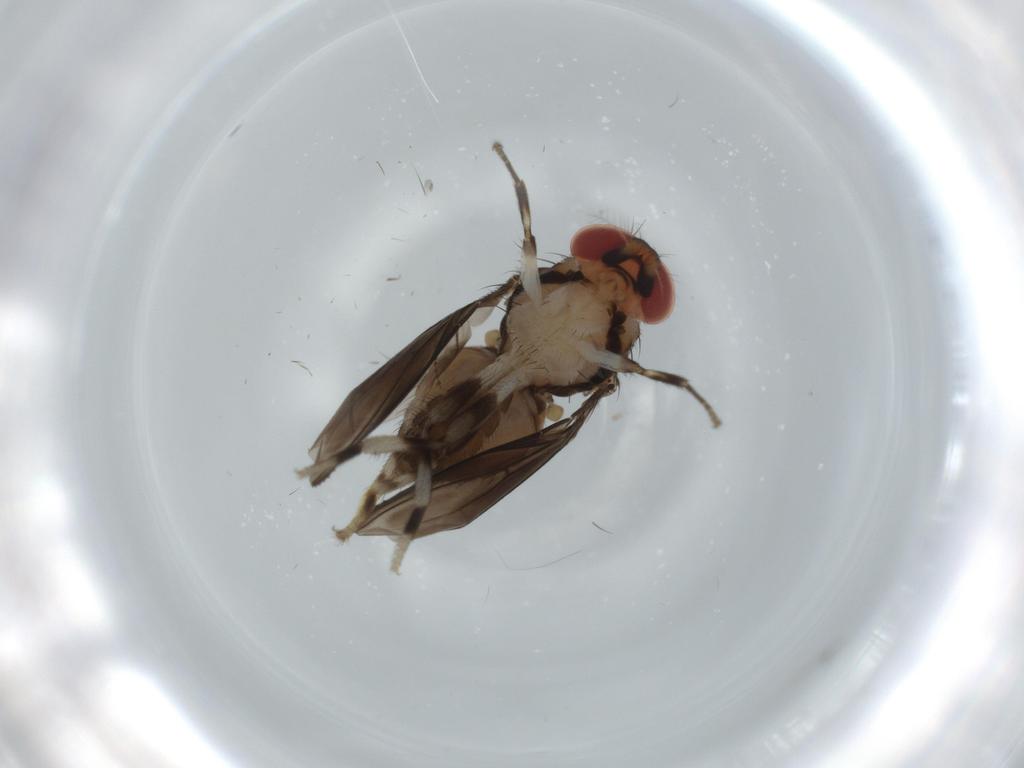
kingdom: Animalia
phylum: Arthropoda
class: Insecta
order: Diptera
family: Drosophilidae
